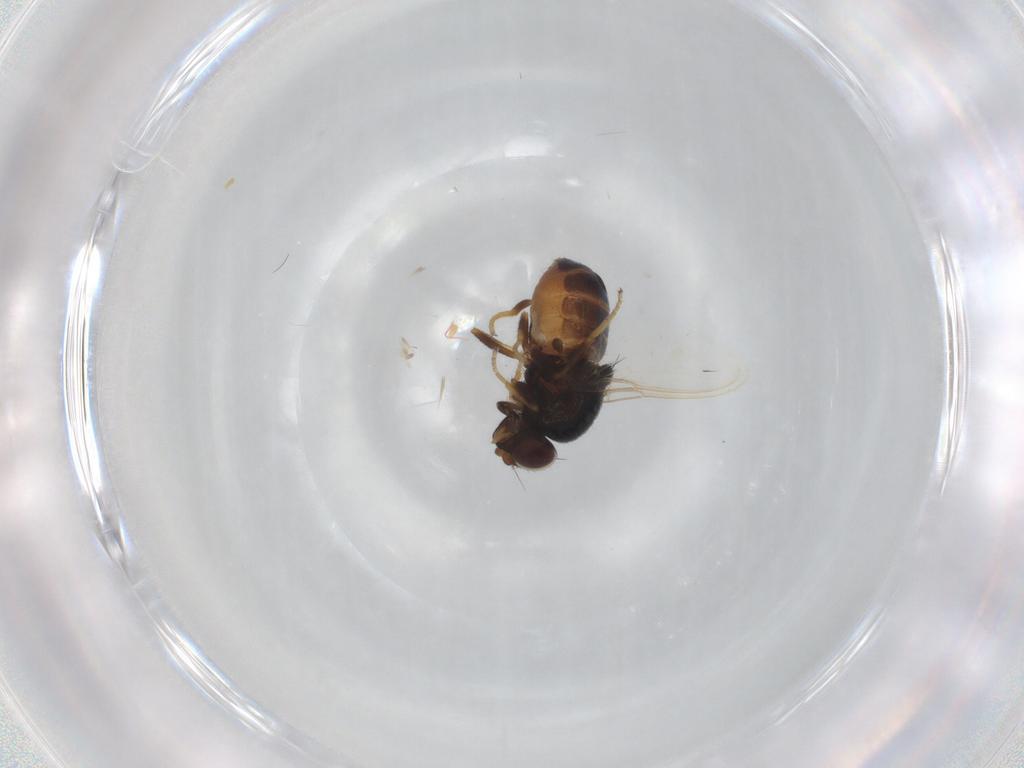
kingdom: Animalia
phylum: Arthropoda
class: Insecta
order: Diptera
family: Chloropidae
